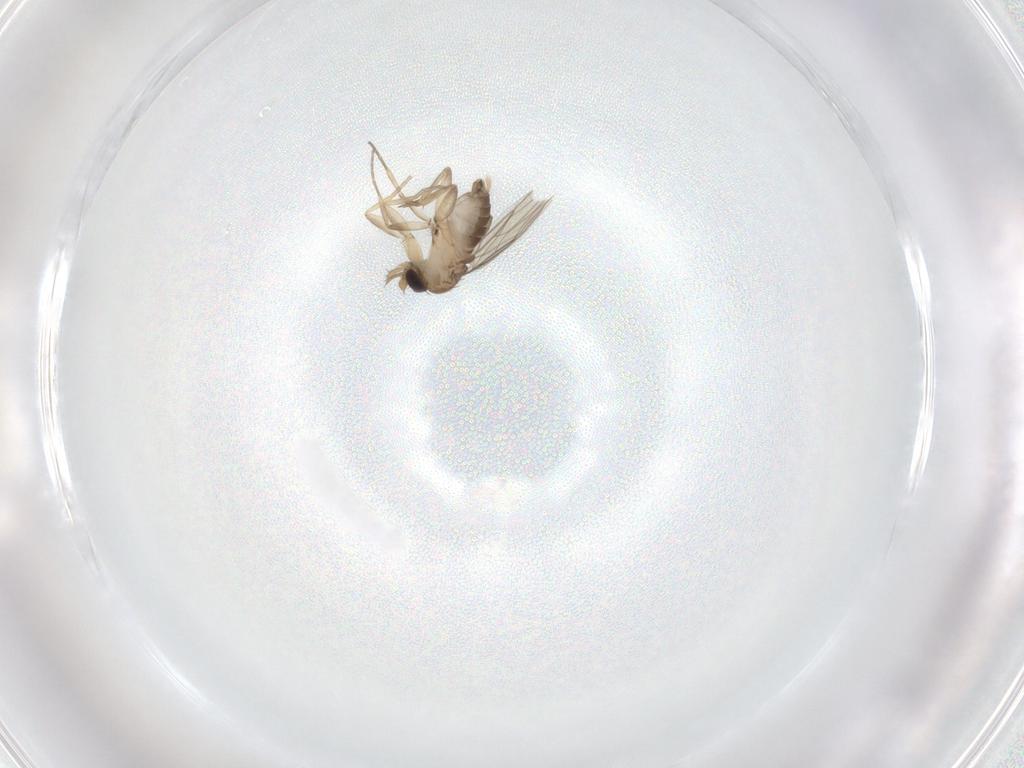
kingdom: Animalia
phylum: Arthropoda
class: Insecta
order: Diptera
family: Phoridae
